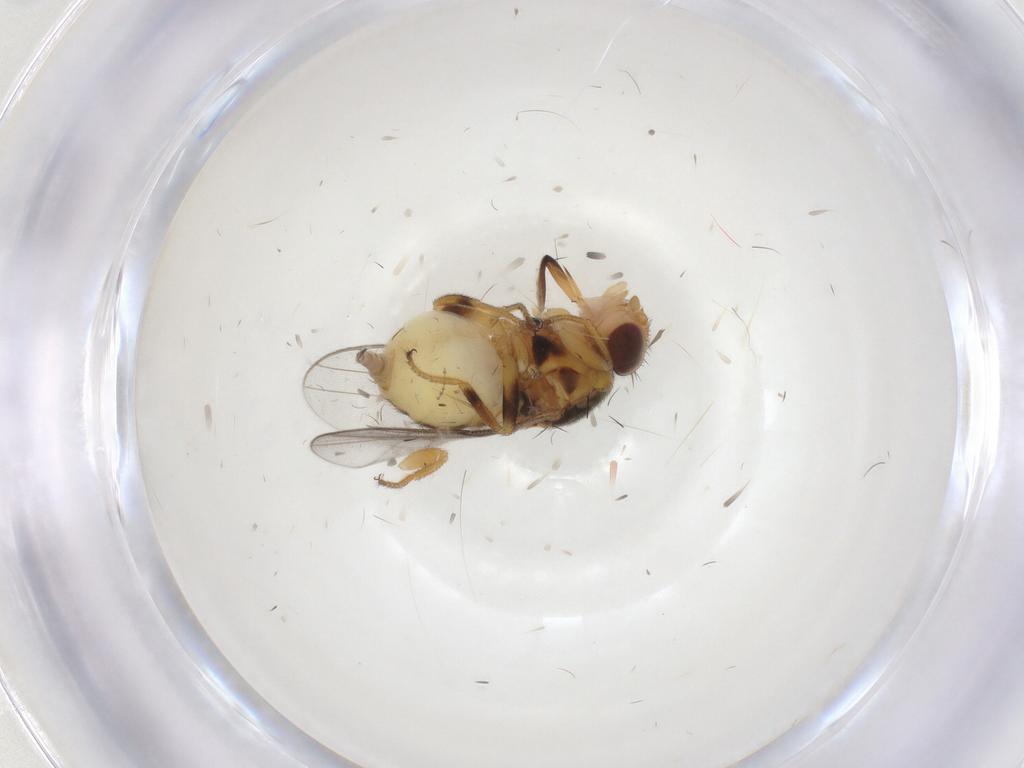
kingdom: Animalia
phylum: Arthropoda
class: Insecta
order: Diptera
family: Chloropidae
